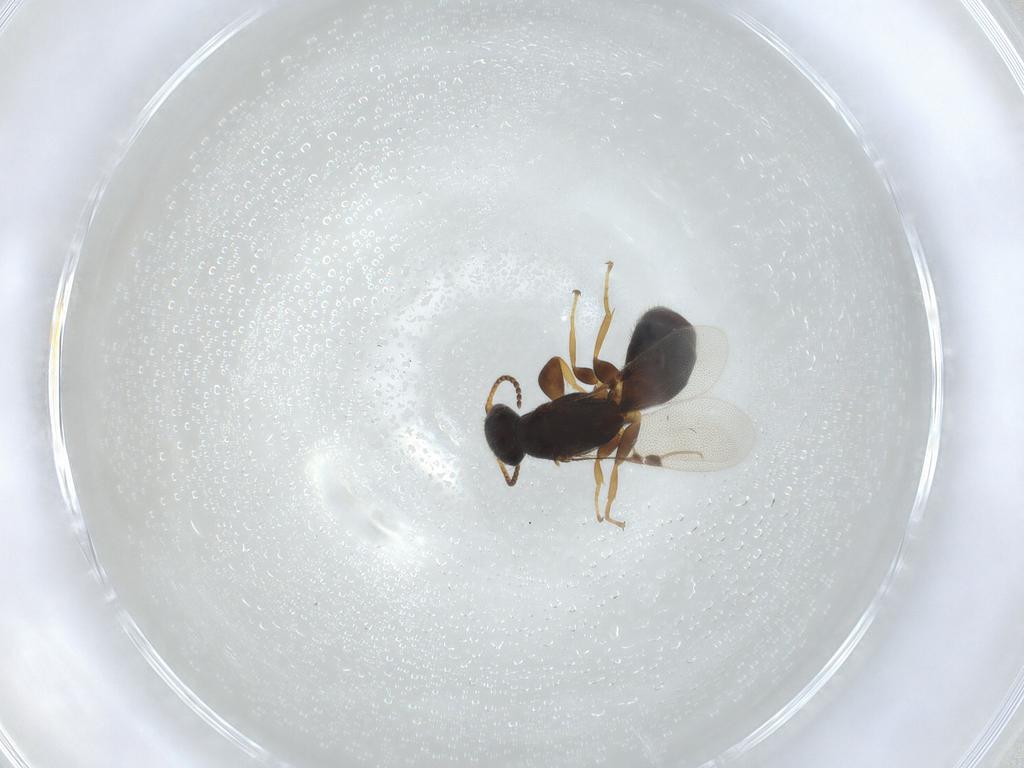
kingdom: Animalia
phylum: Arthropoda
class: Insecta
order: Hymenoptera
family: Bethylidae
